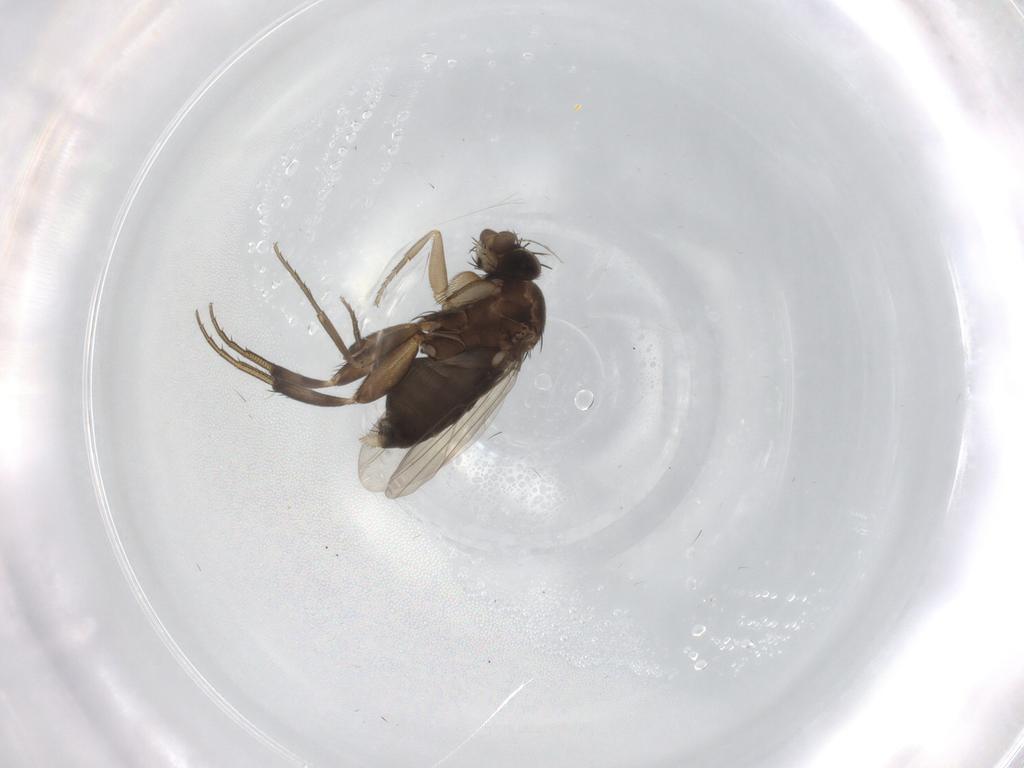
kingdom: Animalia
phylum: Arthropoda
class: Insecta
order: Diptera
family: Phoridae
